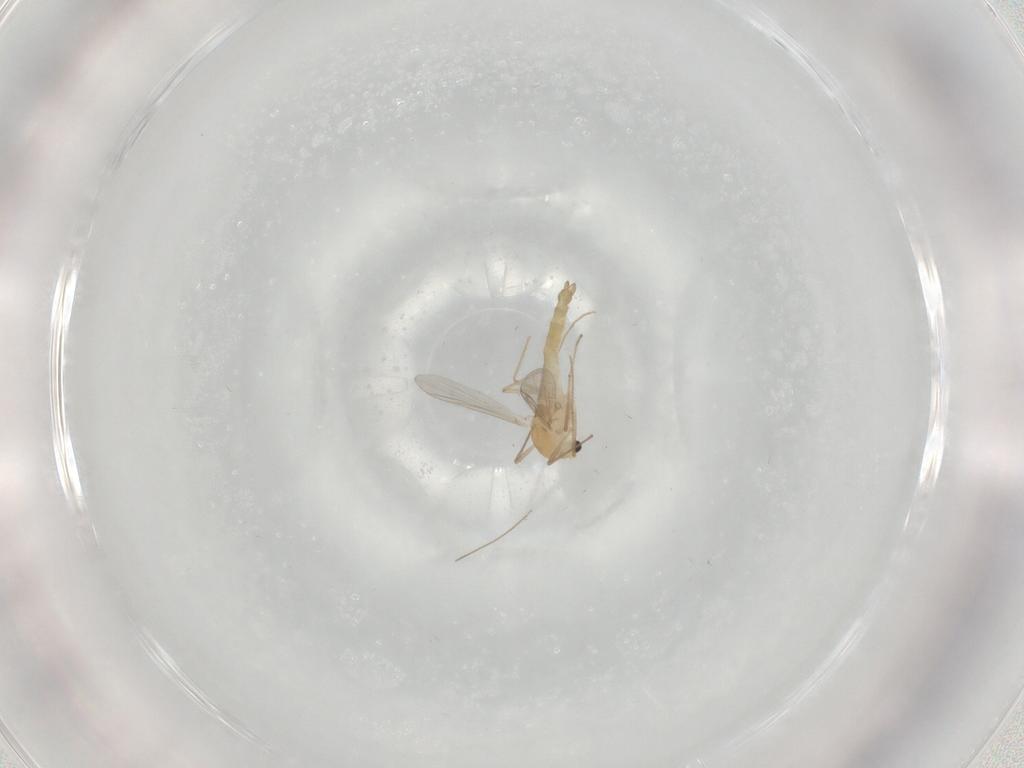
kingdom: Animalia
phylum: Arthropoda
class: Insecta
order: Diptera
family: Chironomidae
